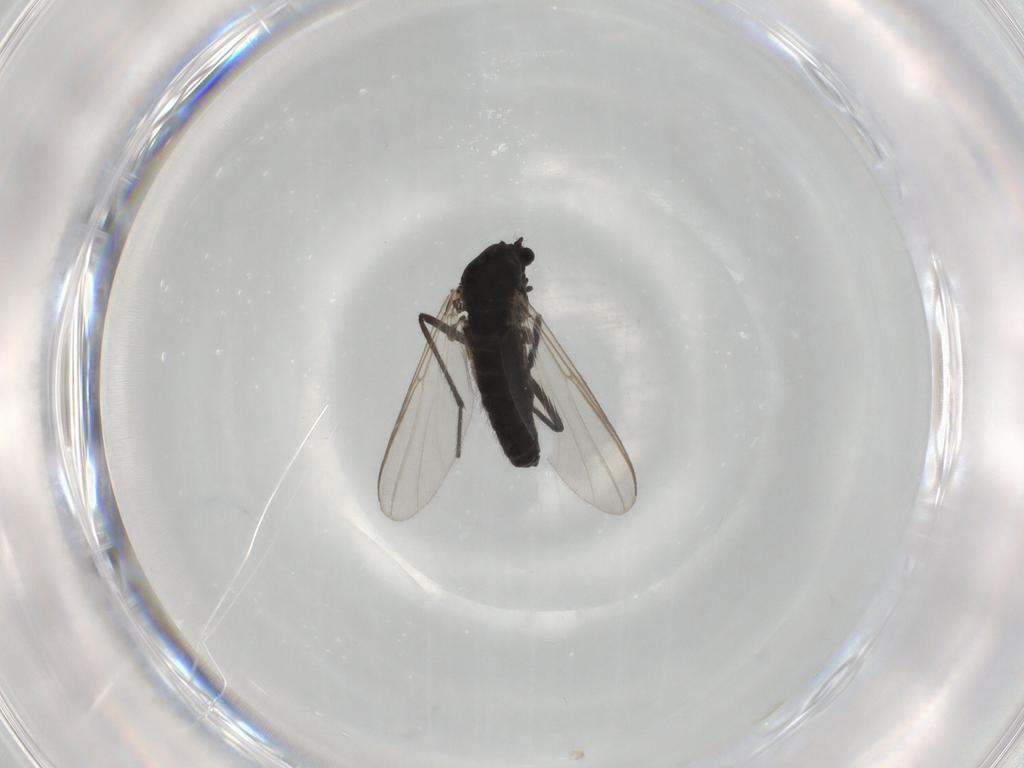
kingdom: Animalia
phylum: Arthropoda
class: Insecta
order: Diptera
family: Chironomidae
